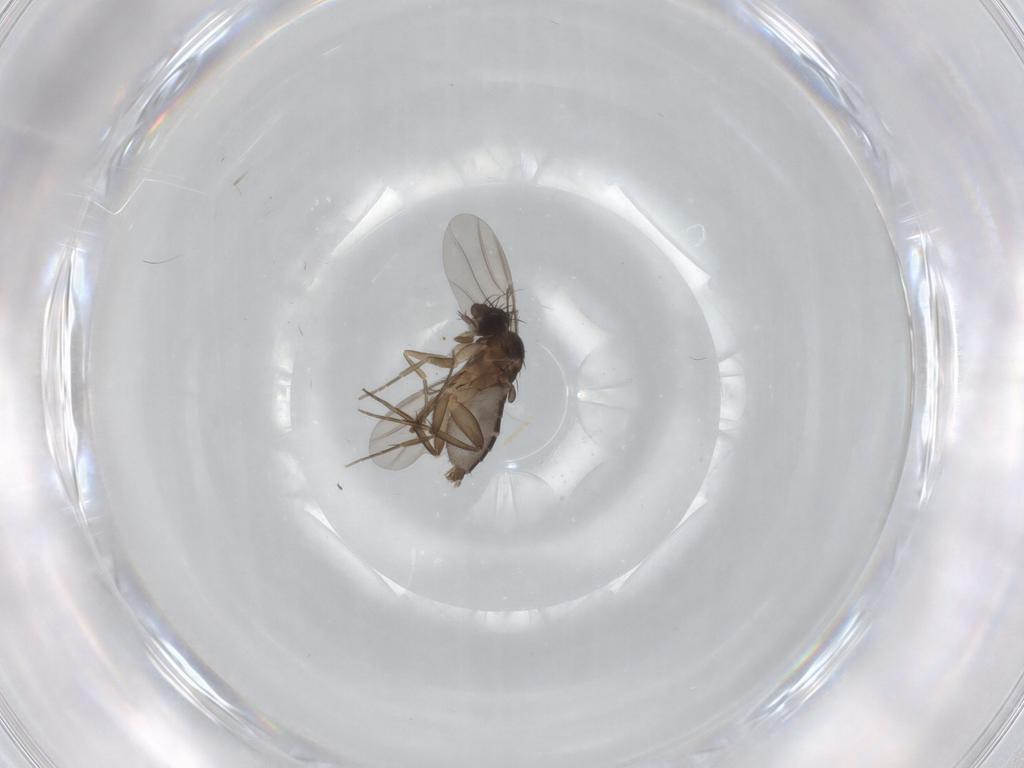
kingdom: Animalia
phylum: Arthropoda
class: Insecta
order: Diptera
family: Phoridae
